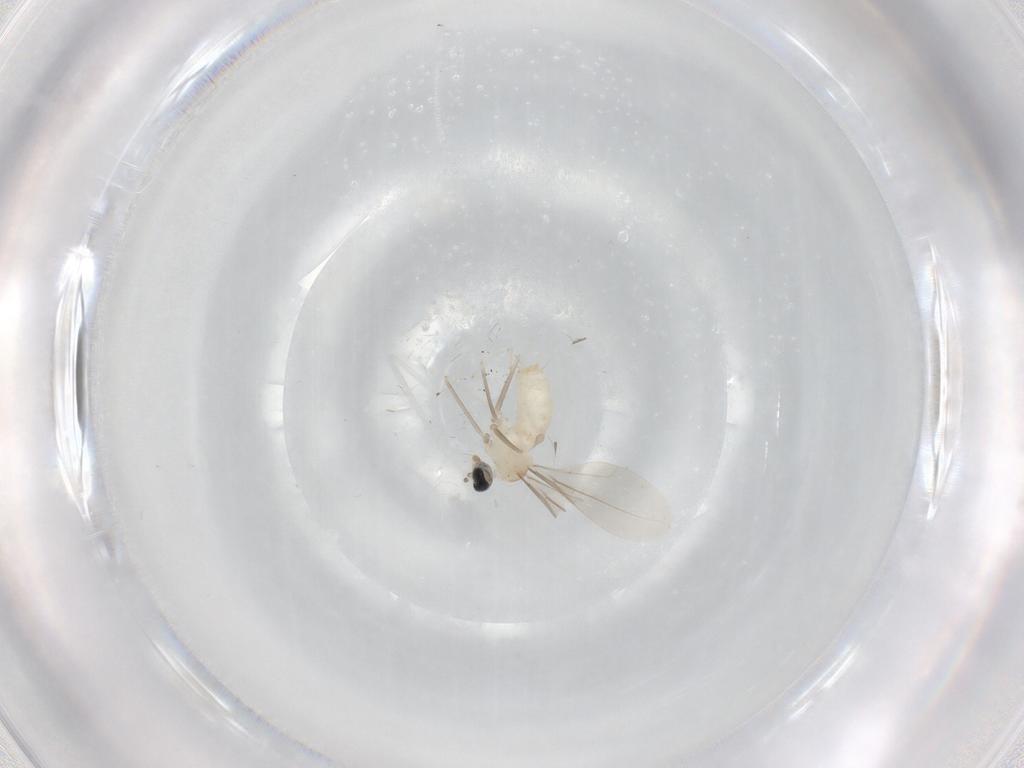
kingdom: Animalia
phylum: Arthropoda
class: Insecta
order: Diptera
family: Cecidomyiidae
